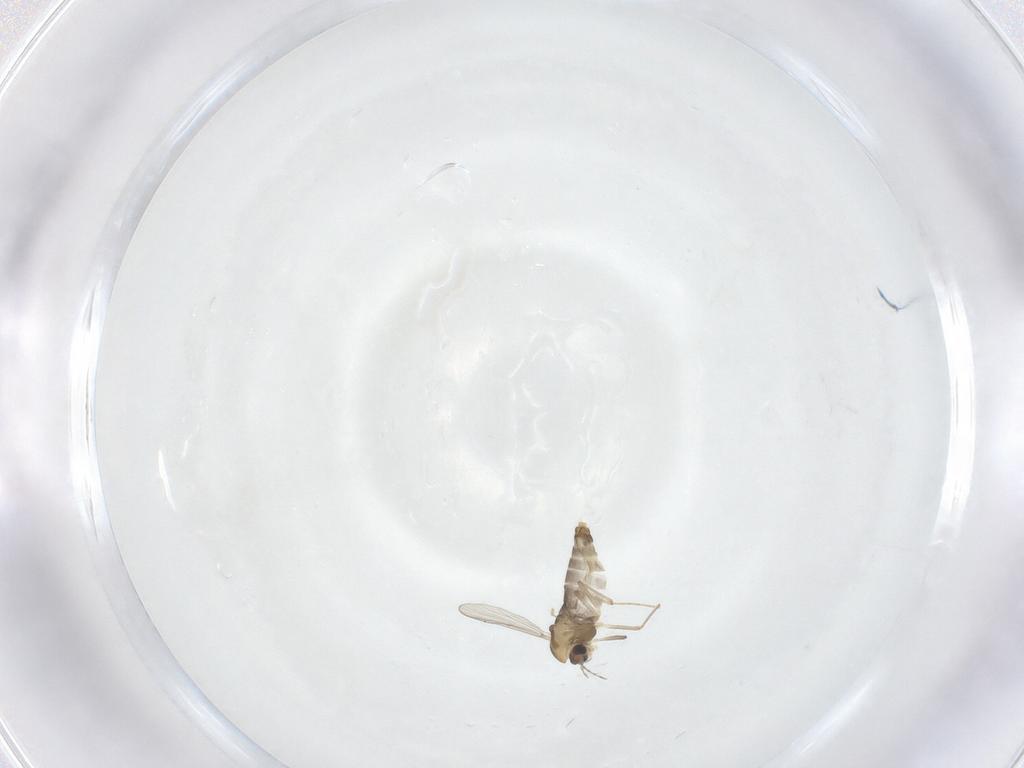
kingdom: Animalia
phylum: Arthropoda
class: Insecta
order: Diptera
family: Chironomidae
